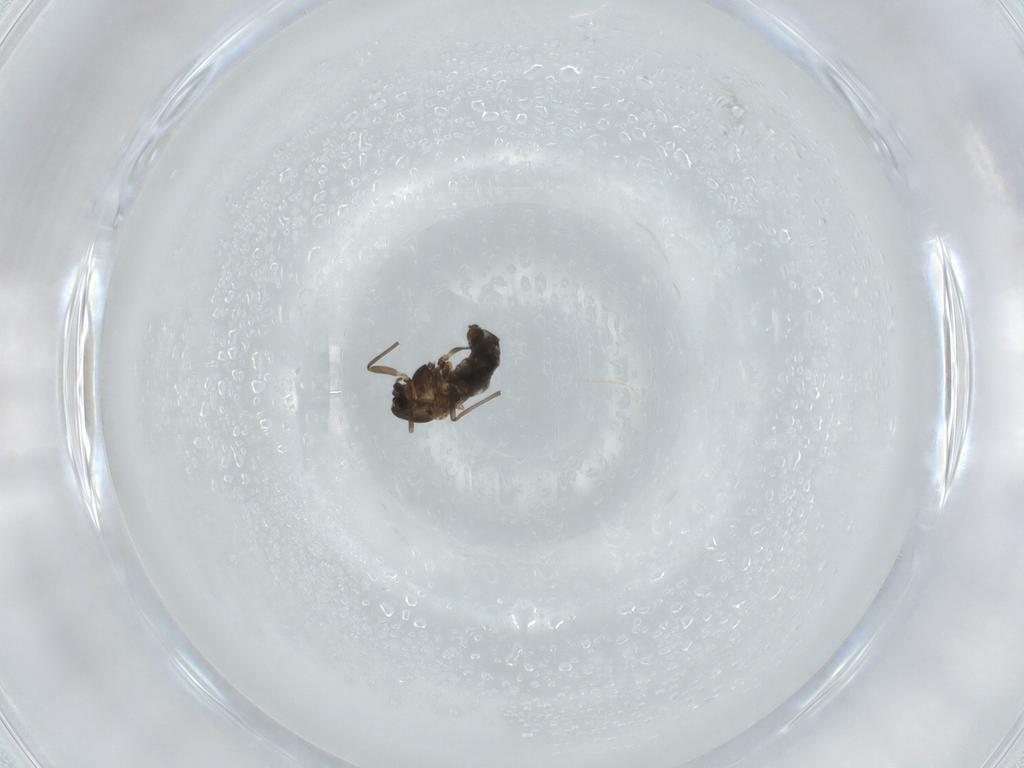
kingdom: Animalia
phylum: Arthropoda
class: Insecta
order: Diptera
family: Chironomidae
